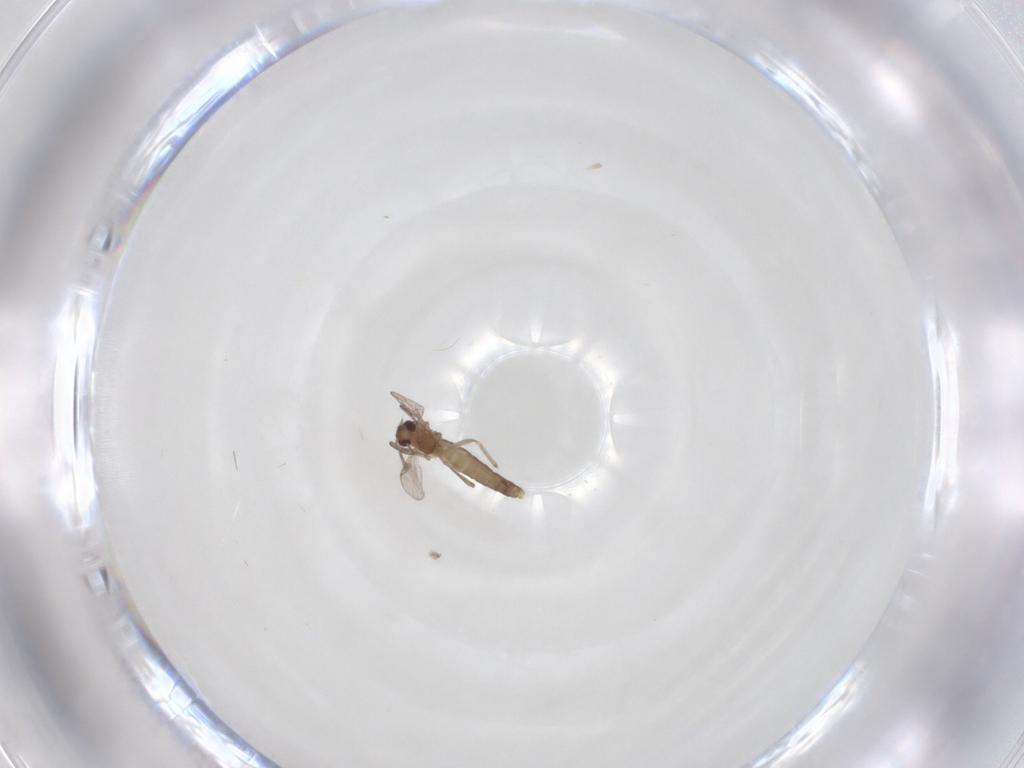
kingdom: Animalia
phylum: Arthropoda
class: Insecta
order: Diptera
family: Chironomidae
